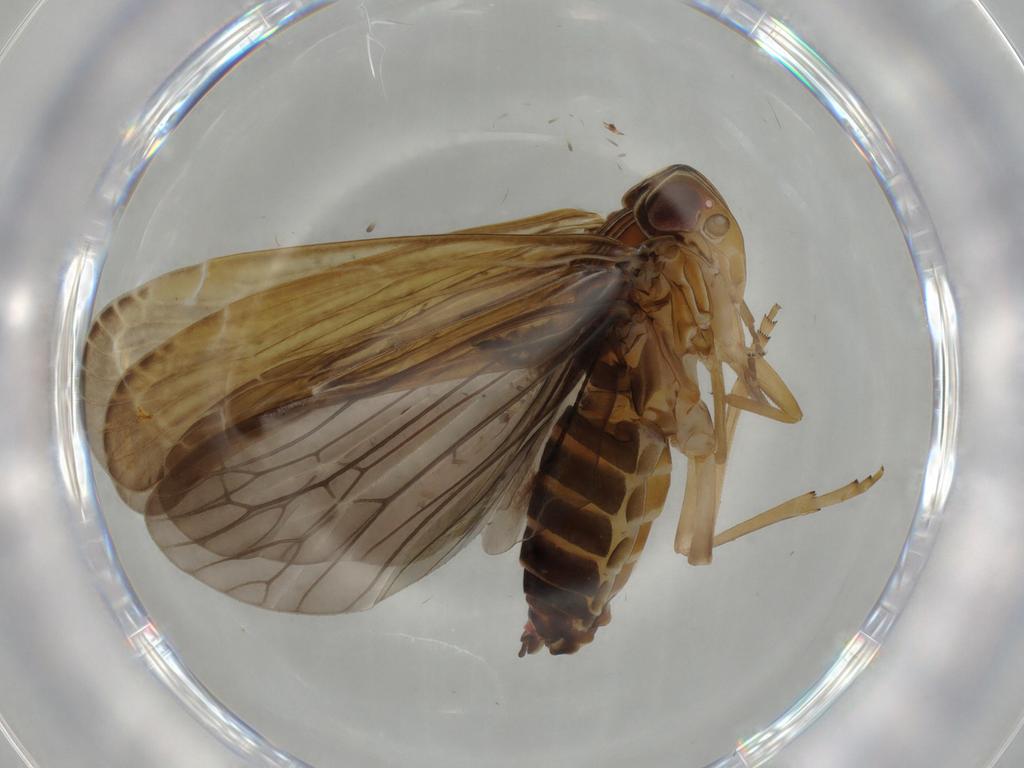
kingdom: Animalia
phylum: Arthropoda
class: Insecta
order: Hemiptera
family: Achilidae
